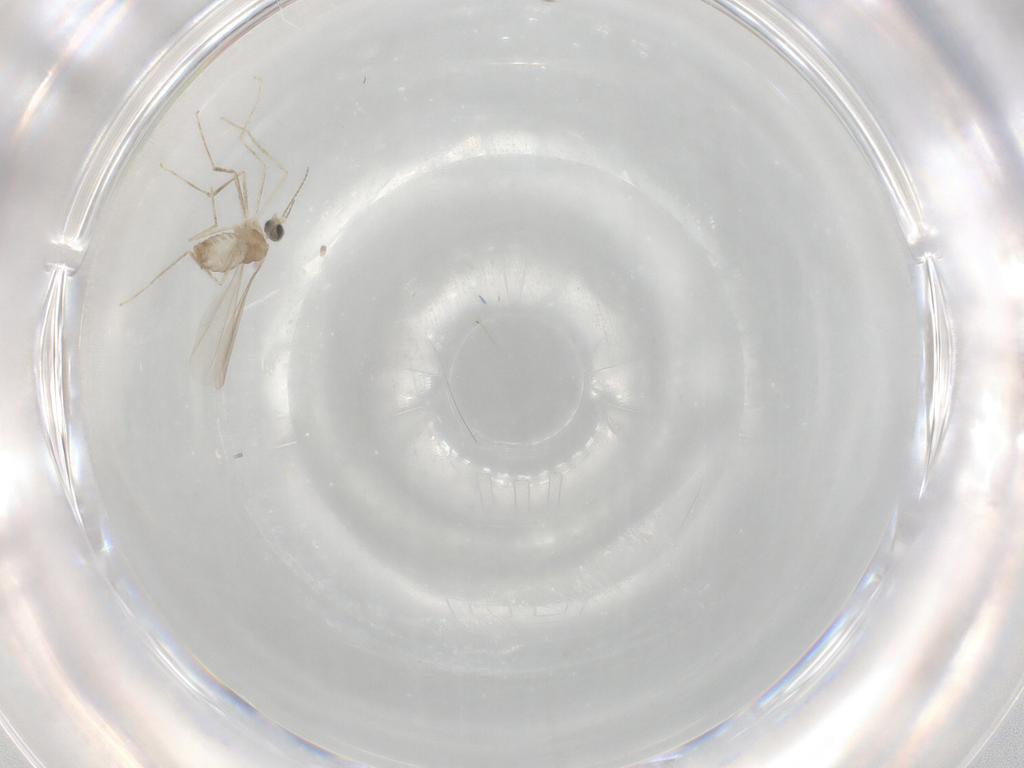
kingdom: Animalia
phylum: Arthropoda
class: Insecta
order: Diptera
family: Cecidomyiidae
